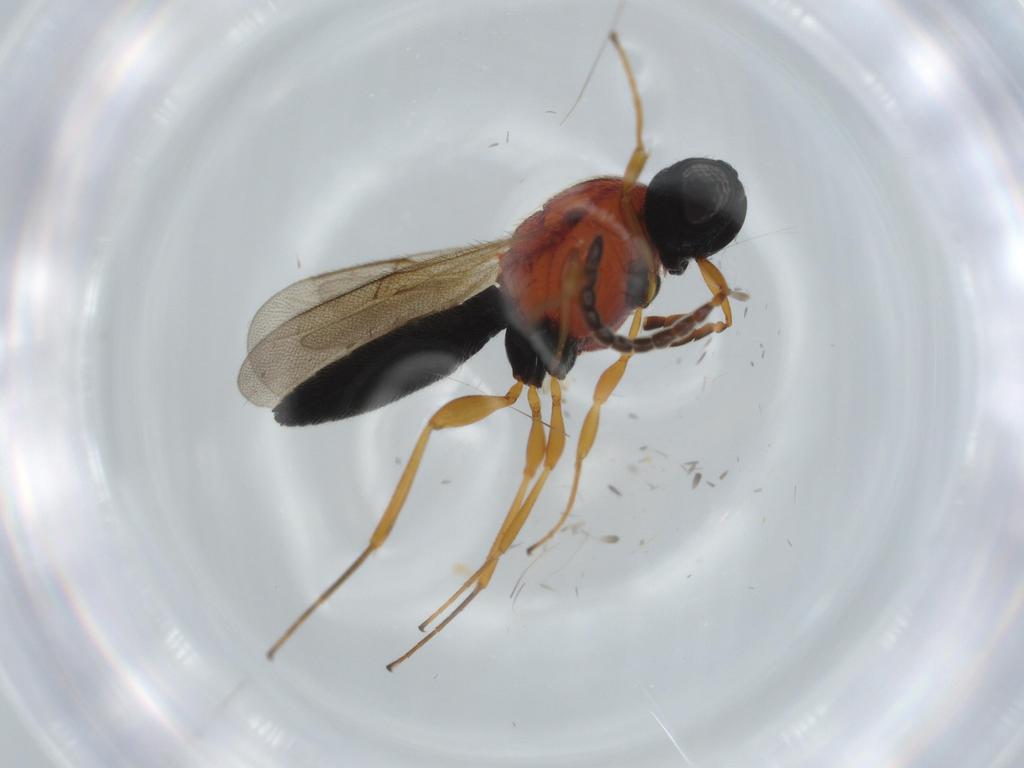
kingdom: Animalia
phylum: Arthropoda
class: Insecta
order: Hymenoptera
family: Scelionidae
